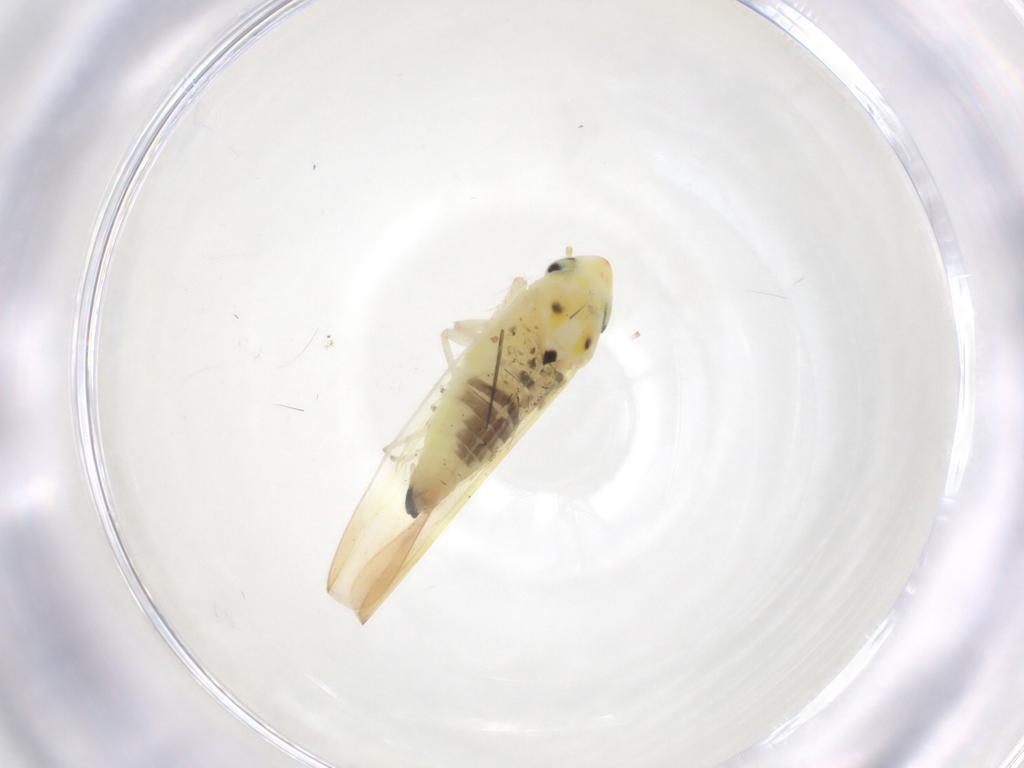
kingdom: Animalia
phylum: Arthropoda
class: Insecta
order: Hemiptera
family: Cicadellidae
